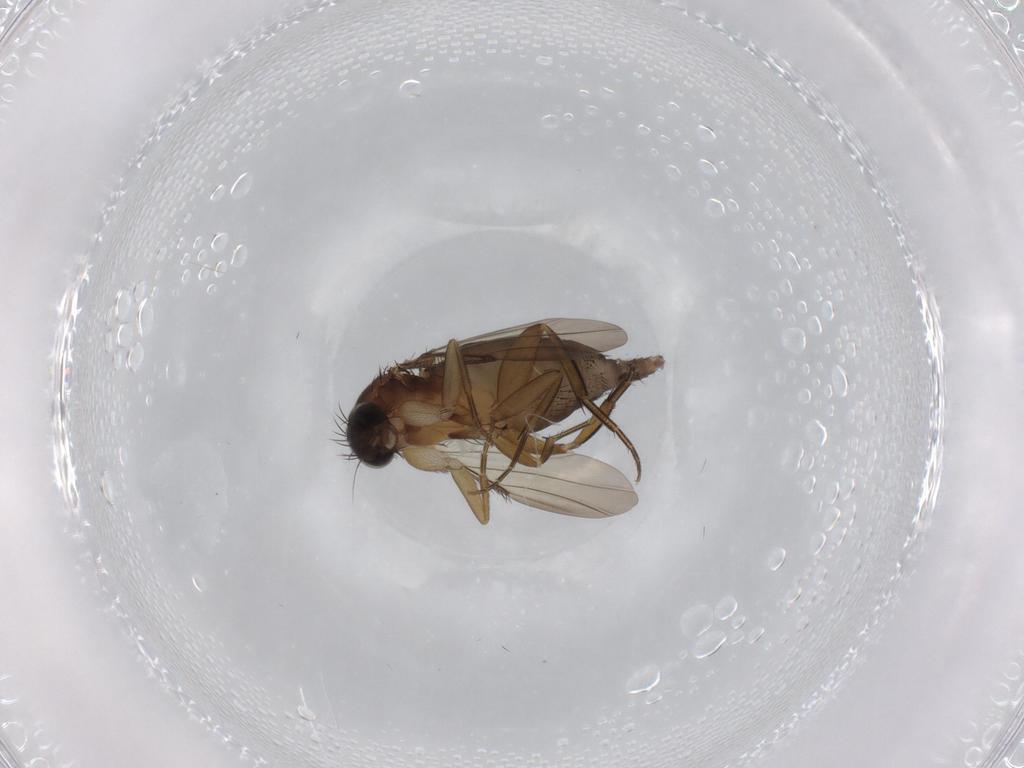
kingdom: Animalia
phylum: Arthropoda
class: Insecta
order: Diptera
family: Phoridae
